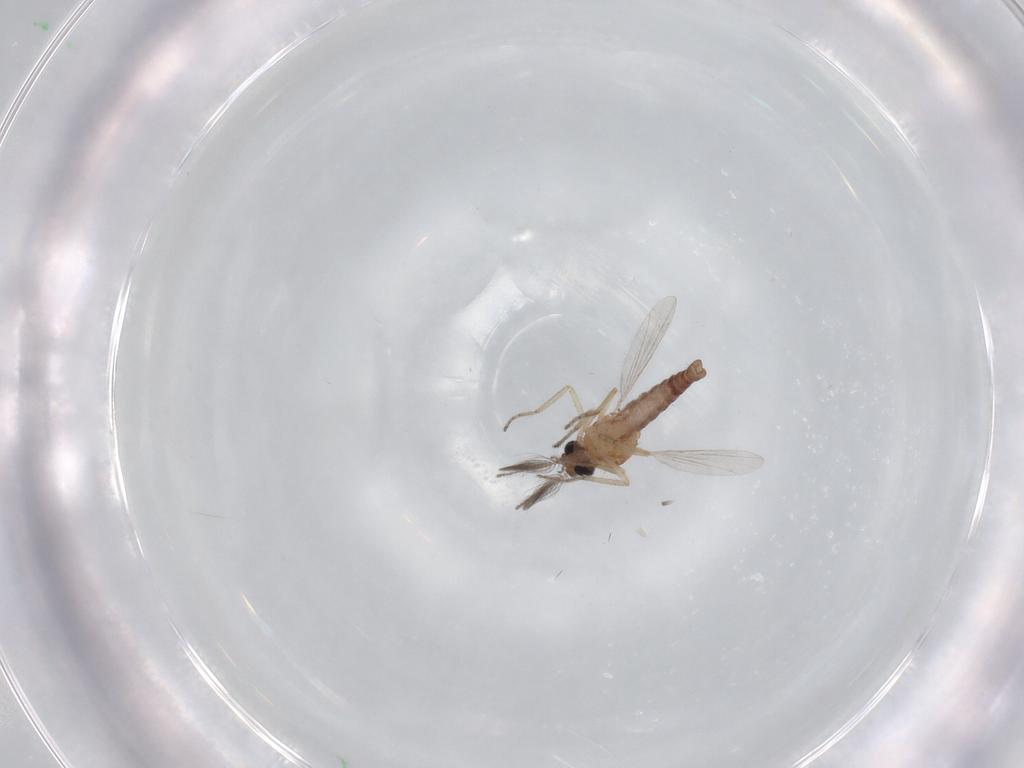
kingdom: Animalia
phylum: Arthropoda
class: Insecta
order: Diptera
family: Ceratopogonidae
